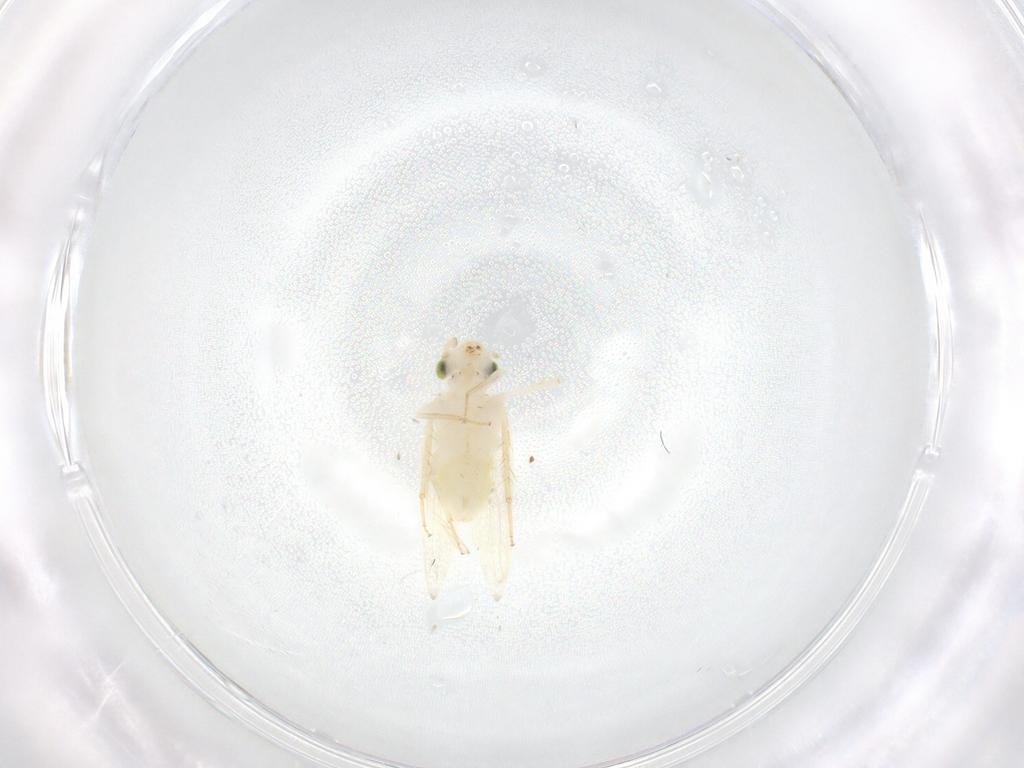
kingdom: Animalia
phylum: Arthropoda
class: Insecta
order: Psocodea
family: Lepidopsocidae
